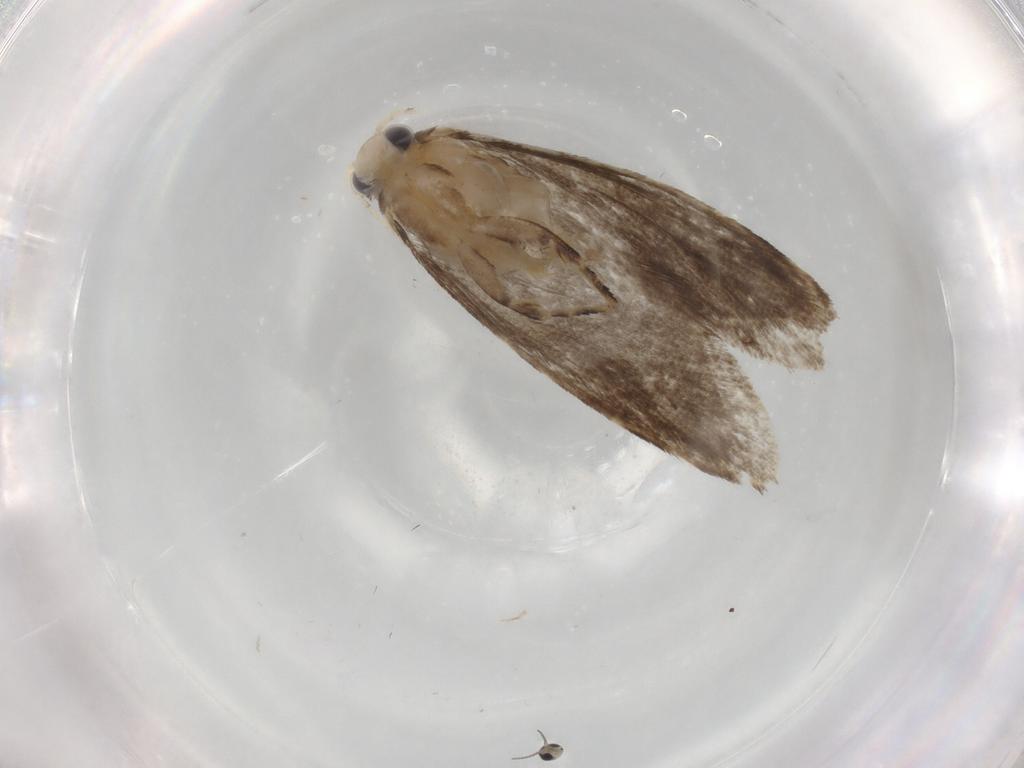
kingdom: Animalia
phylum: Arthropoda
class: Insecta
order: Lepidoptera
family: Tineidae
